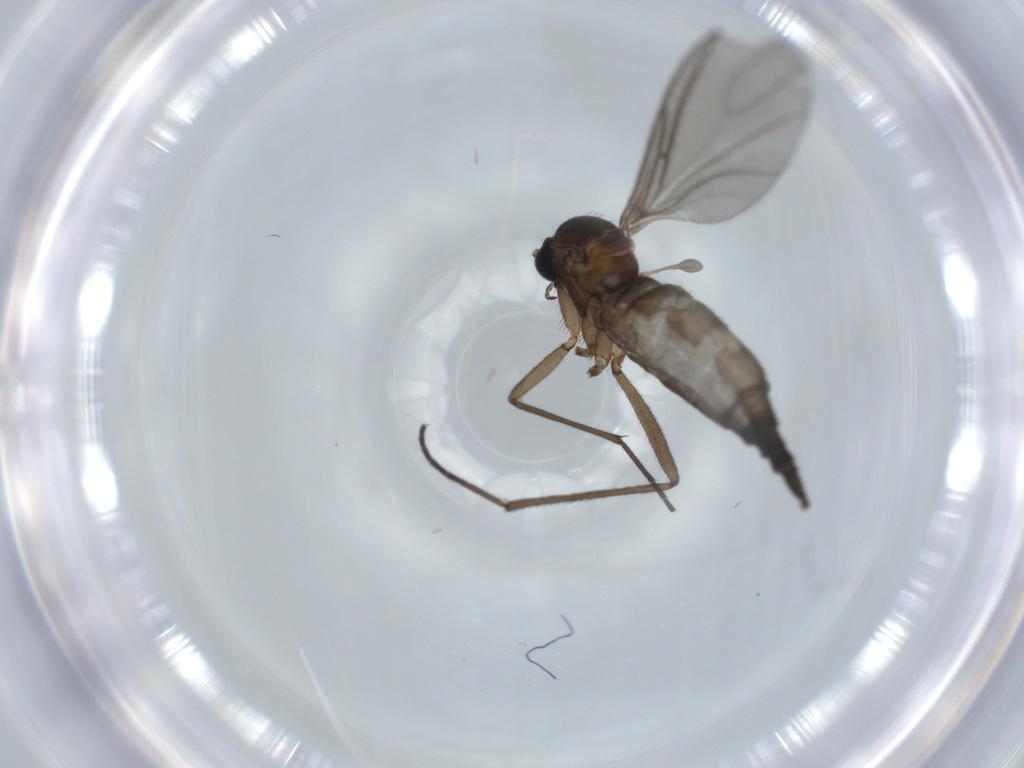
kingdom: Animalia
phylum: Arthropoda
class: Insecta
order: Diptera
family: Sciaridae
